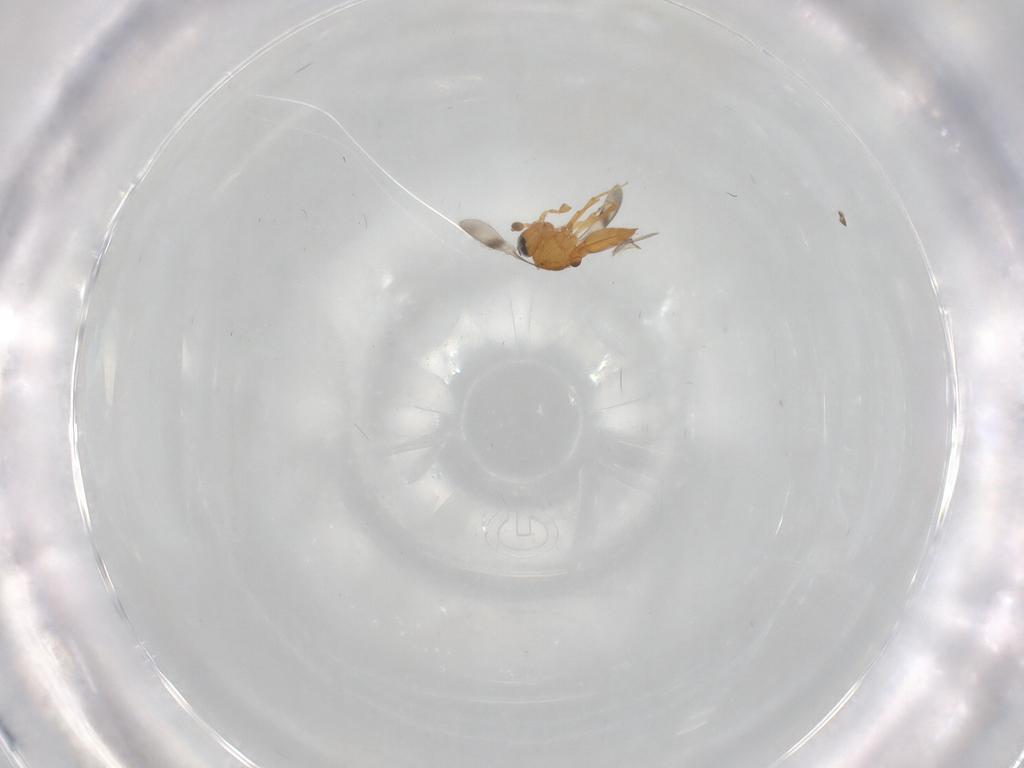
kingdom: Animalia
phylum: Arthropoda
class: Insecta
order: Hymenoptera
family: Scelionidae
